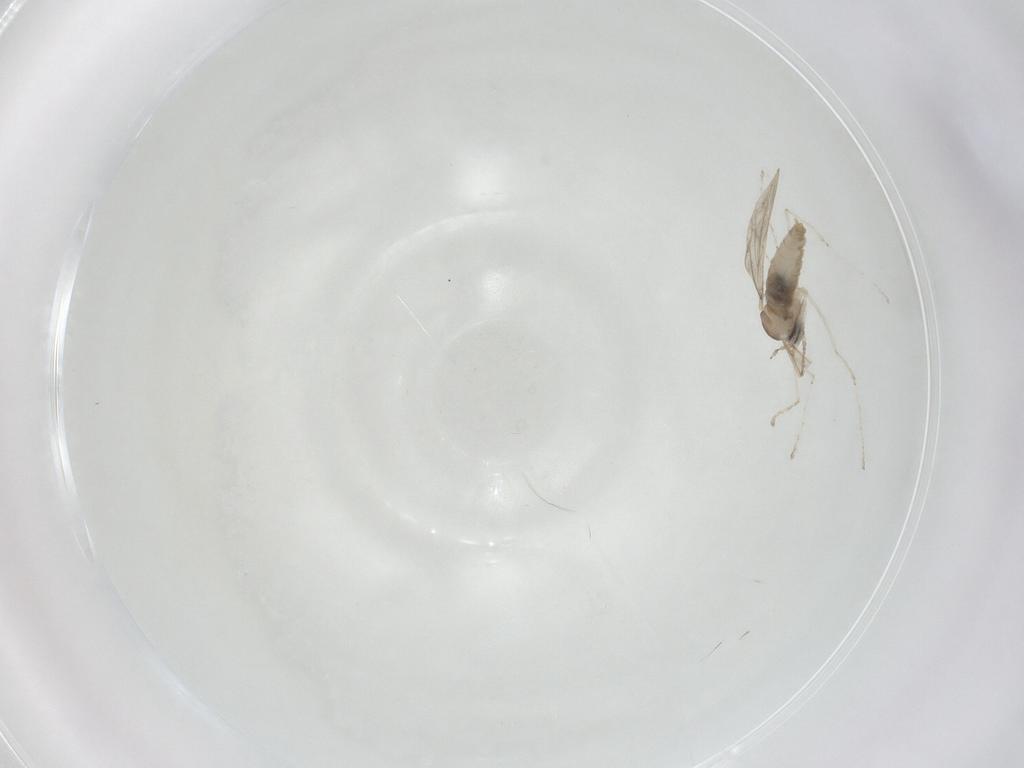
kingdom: Animalia
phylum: Arthropoda
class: Insecta
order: Diptera
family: Cecidomyiidae
